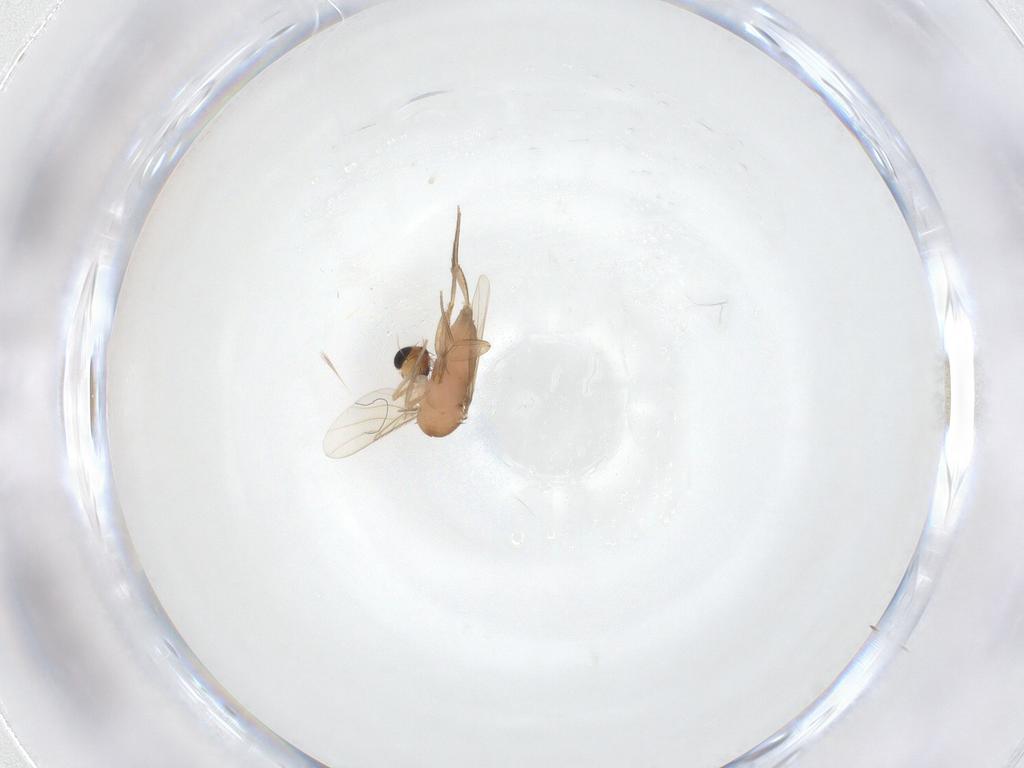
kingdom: Animalia
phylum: Arthropoda
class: Insecta
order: Diptera
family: Phoridae
